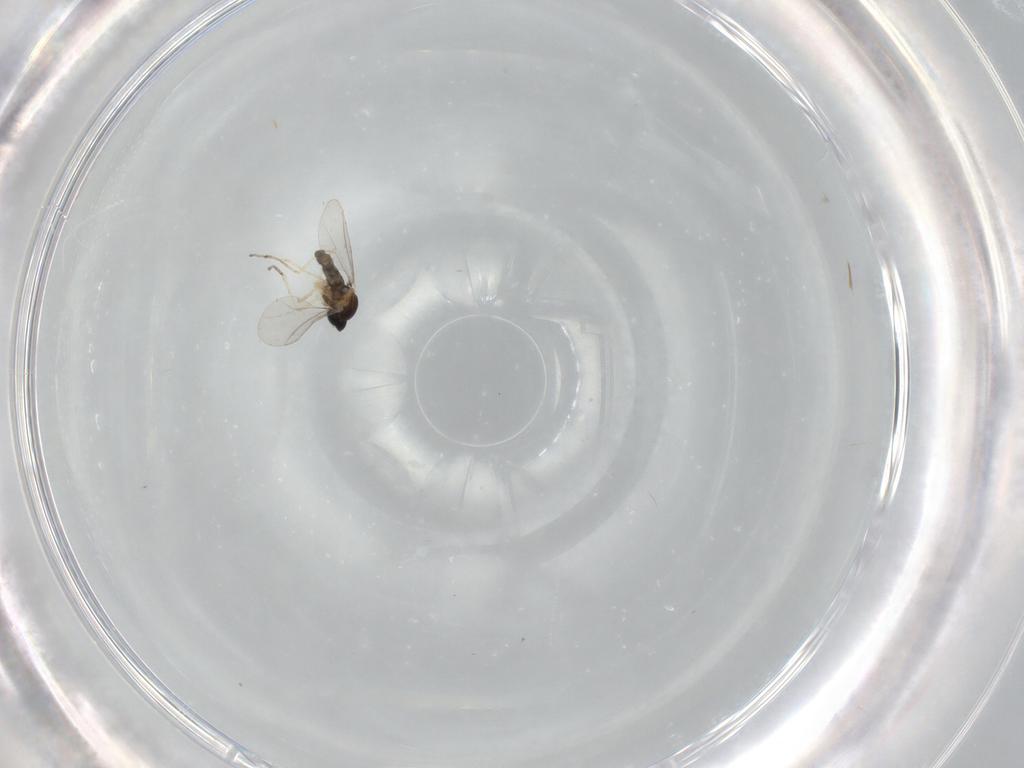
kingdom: Animalia
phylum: Arthropoda
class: Insecta
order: Diptera
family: Cecidomyiidae
